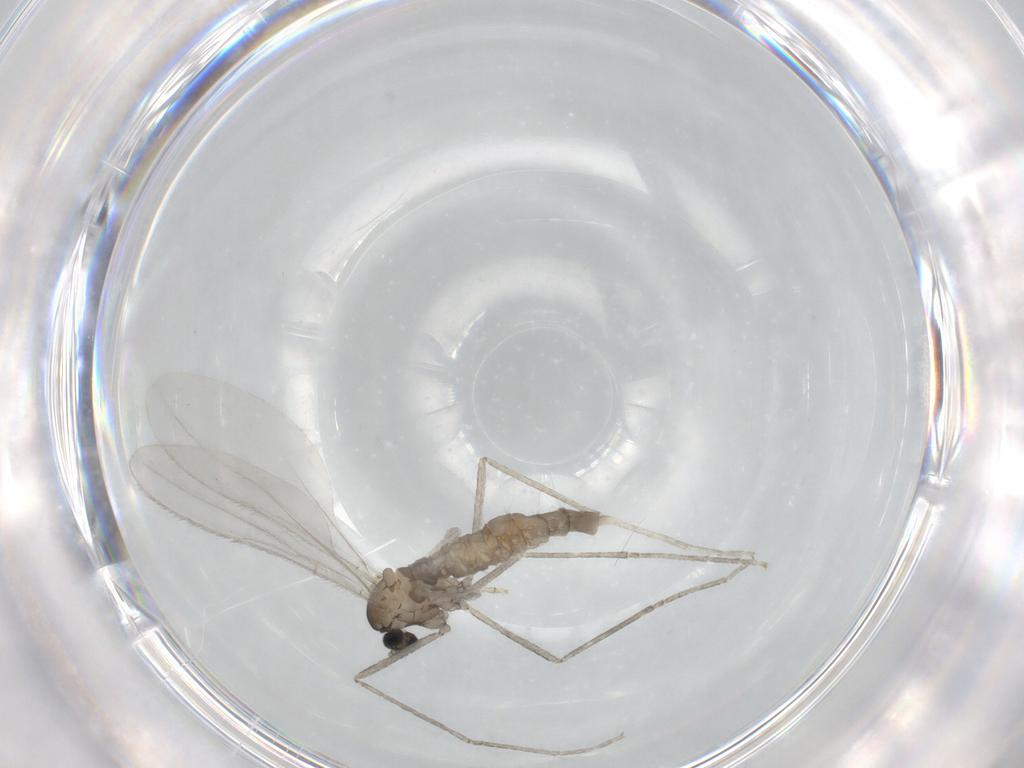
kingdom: Animalia
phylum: Arthropoda
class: Insecta
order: Diptera
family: Cecidomyiidae
